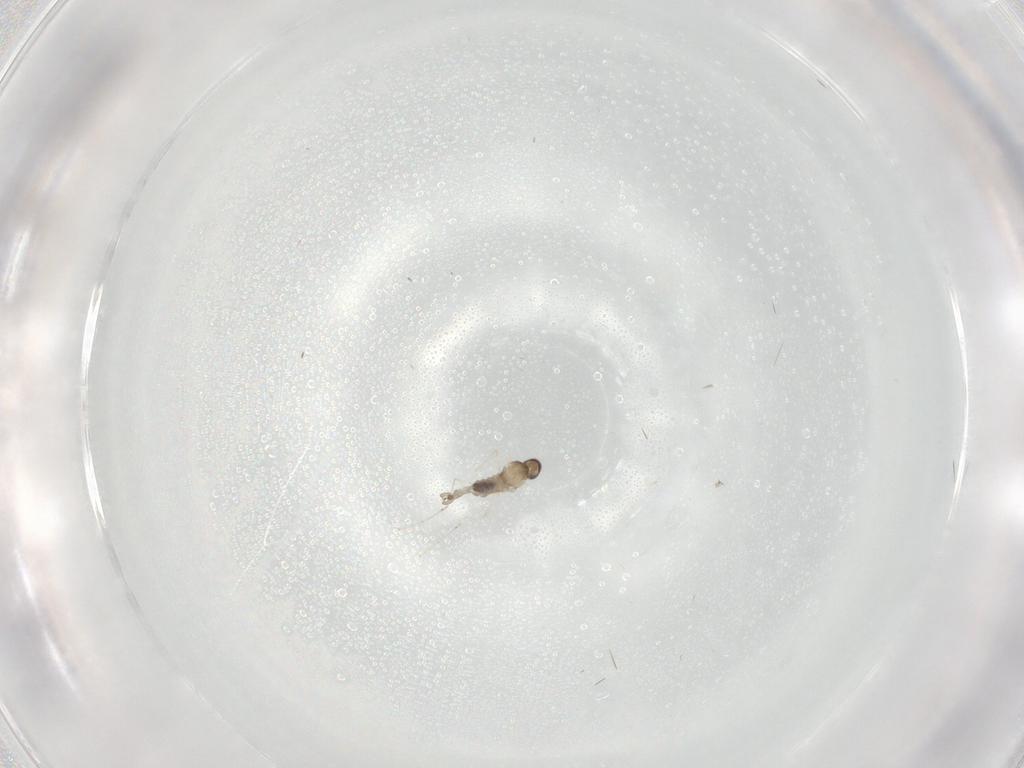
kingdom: Animalia
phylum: Arthropoda
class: Insecta
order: Diptera
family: Cecidomyiidae
